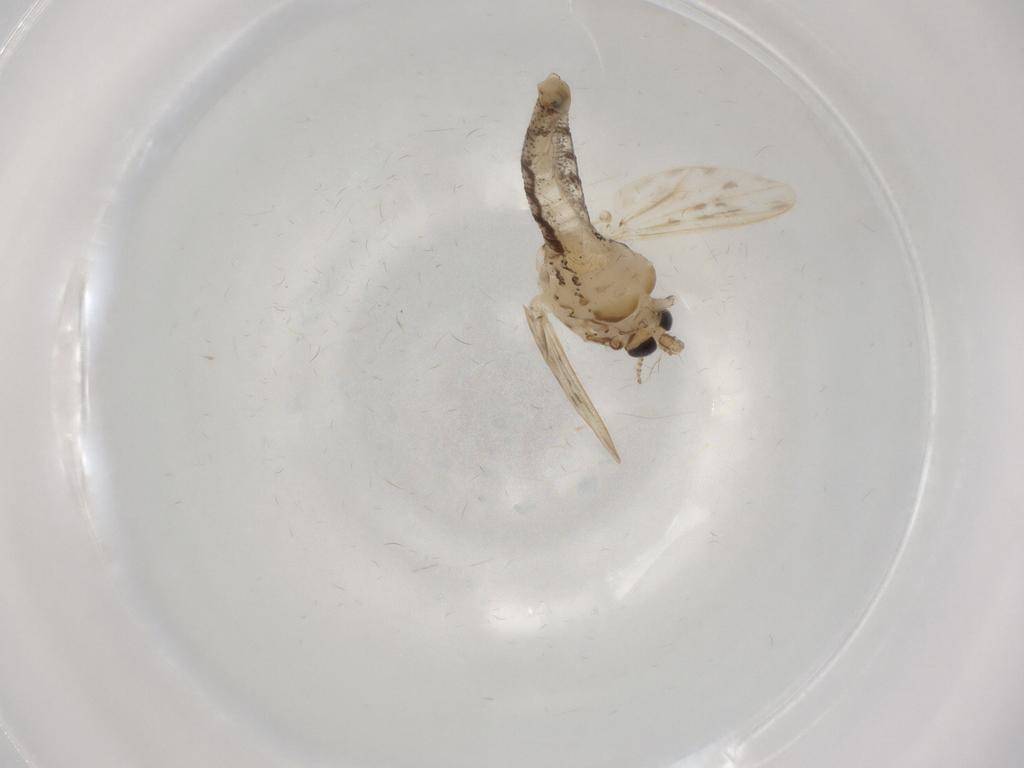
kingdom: Animalia
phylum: Arthropoda
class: Insecta
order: Diptera
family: Chaoboridae
